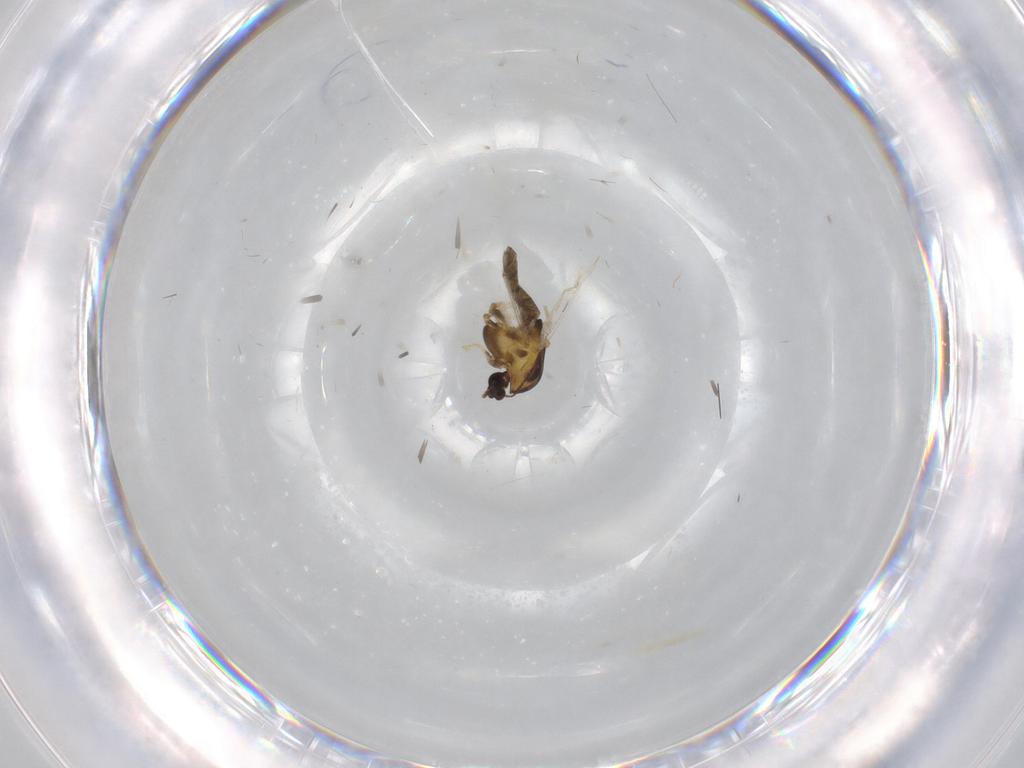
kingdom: Animalia
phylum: Arthropoda
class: Insecta
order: Diptera
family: Chironomidae
